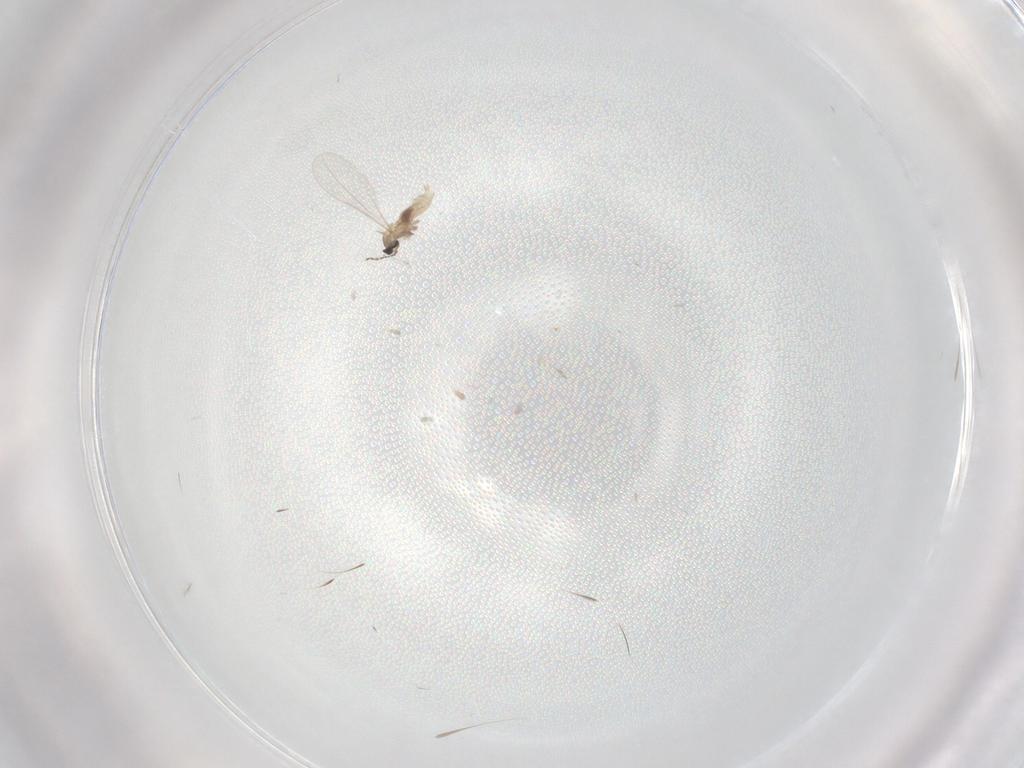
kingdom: Animalia
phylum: Arthropoda
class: Insecta
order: Diptera
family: Cecidomyiidae
